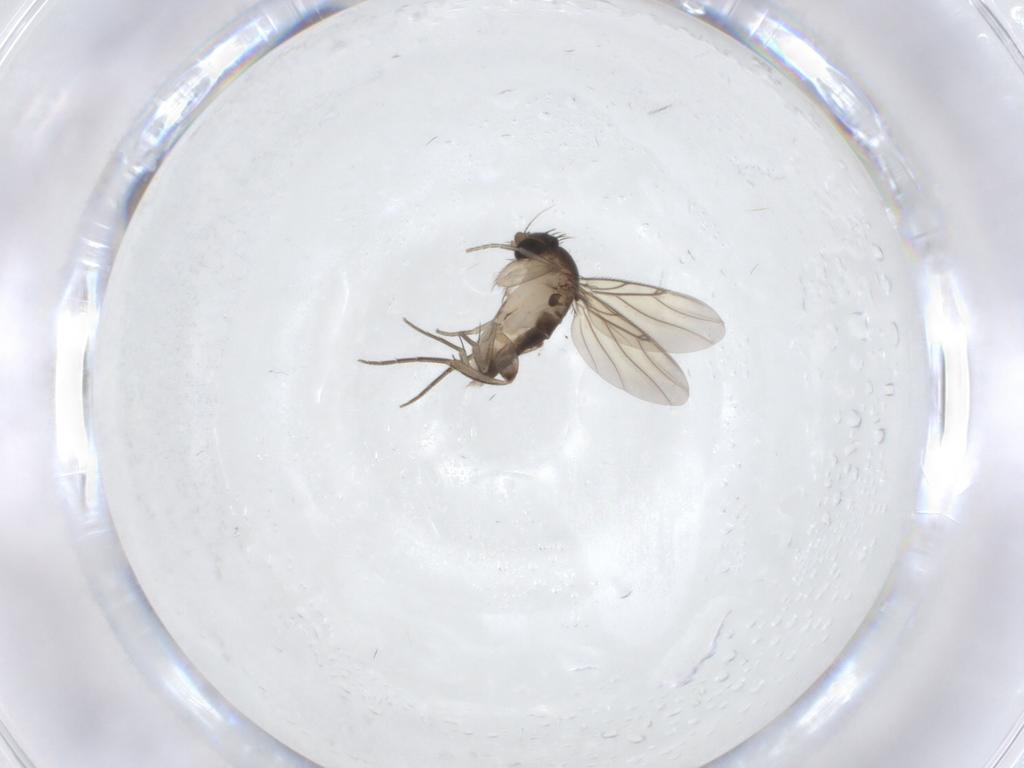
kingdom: Animalia
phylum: Arthropoda
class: Insecta
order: Diptera
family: Phoridae
